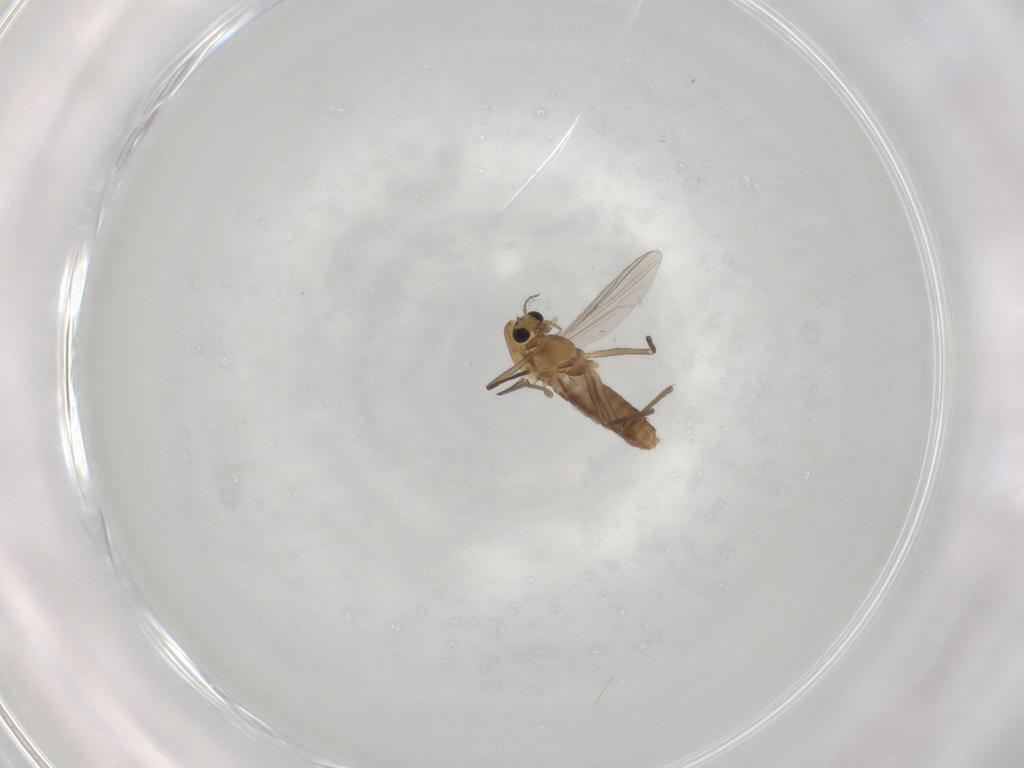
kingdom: Animalia
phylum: Arthropoda
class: Insecta
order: Diptera
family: Chironomidae
